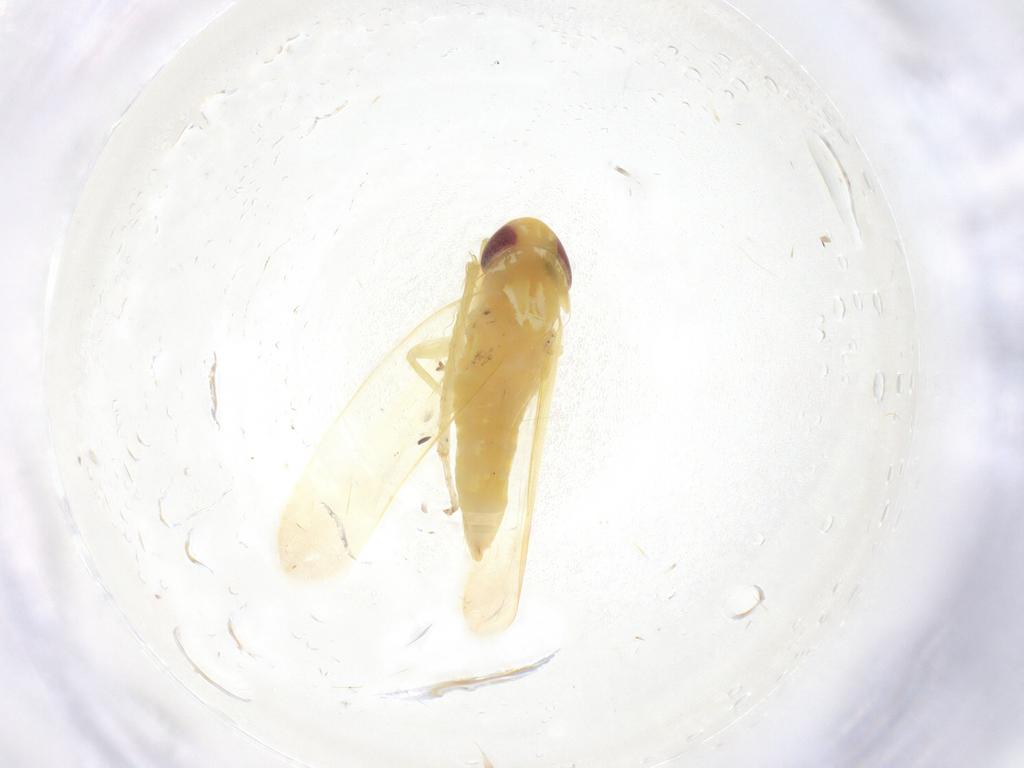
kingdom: Animalia
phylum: Arthropoda
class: Insecta
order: Hemiptera
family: Cicadellidae
